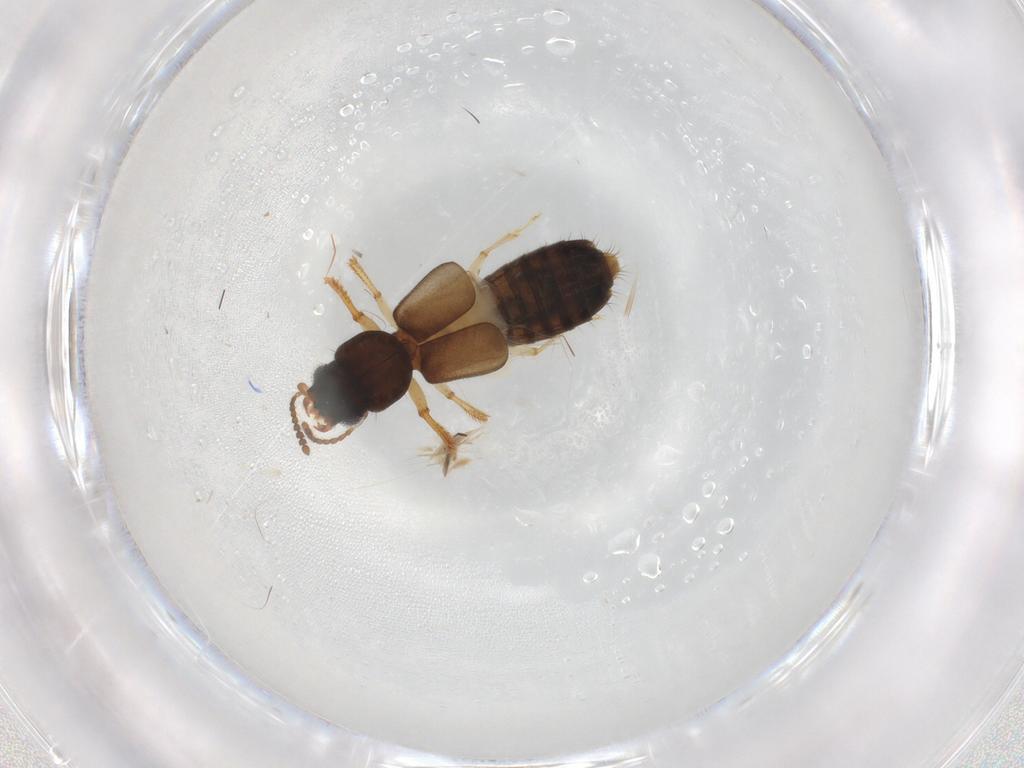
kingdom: Animalia
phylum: Arthropoda
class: Insecta
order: Coleoptera
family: Staphylinidae
